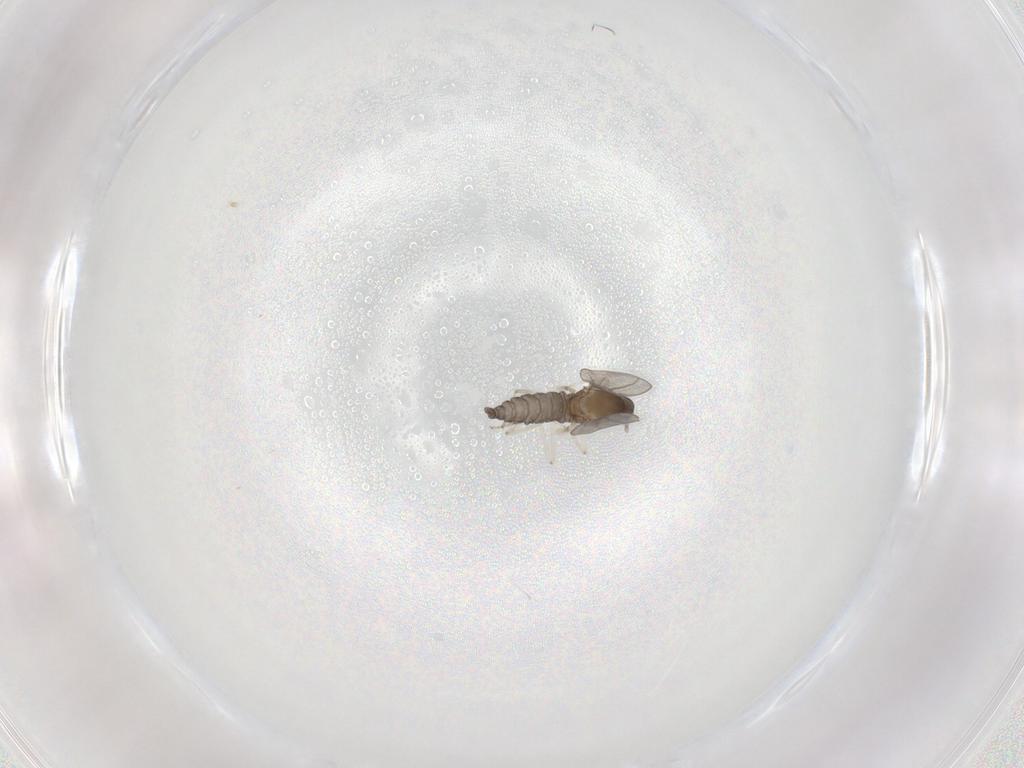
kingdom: Animalia
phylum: Arthropoda
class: Insecta
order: Diptera
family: Cecidomyiidae
